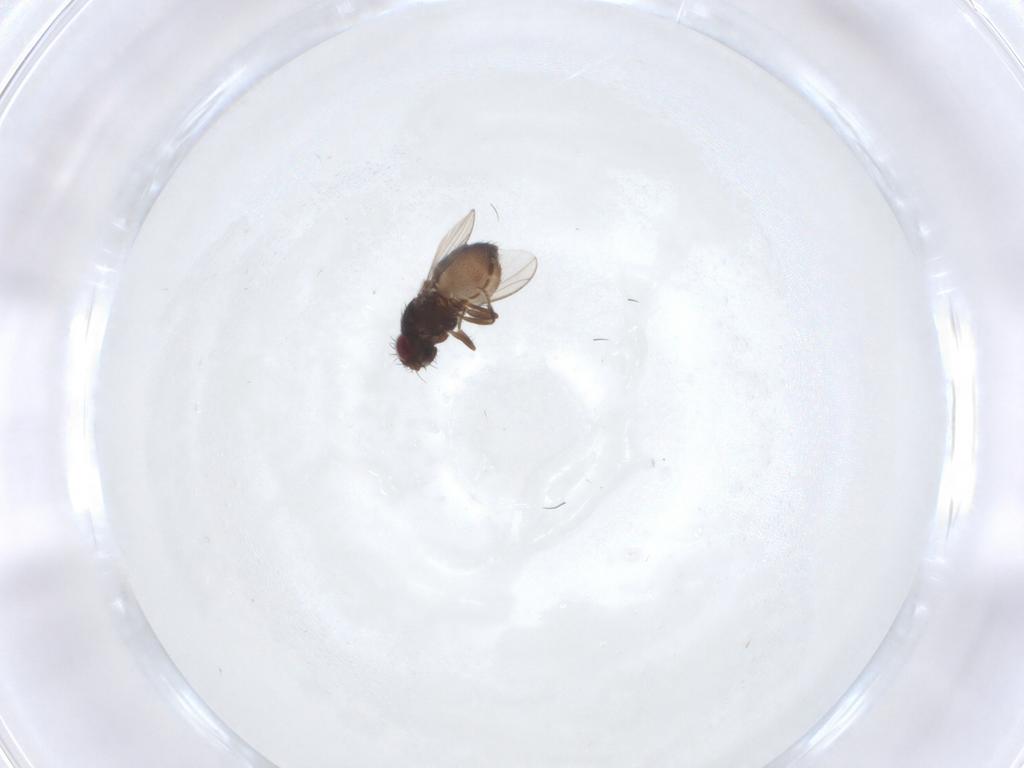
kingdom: Animalia
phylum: Arthropoda
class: Insecta
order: Diptera
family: Carnidae
